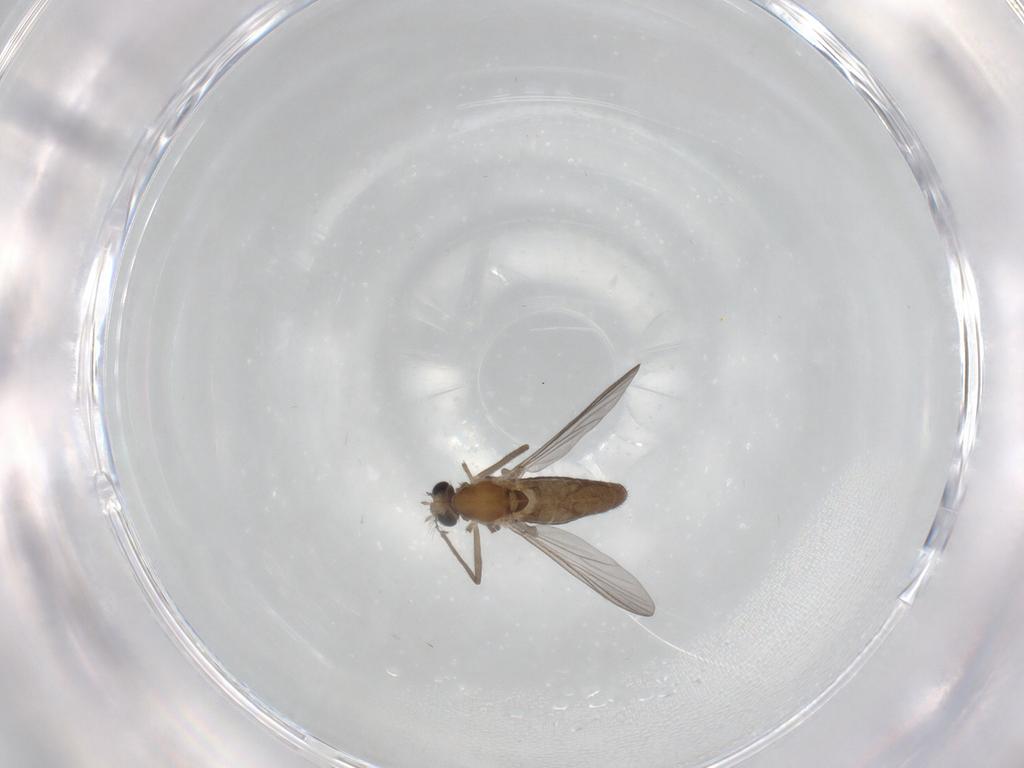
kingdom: Animalia
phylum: Arthropoda
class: Insecta
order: Diptera
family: Chironomidae
